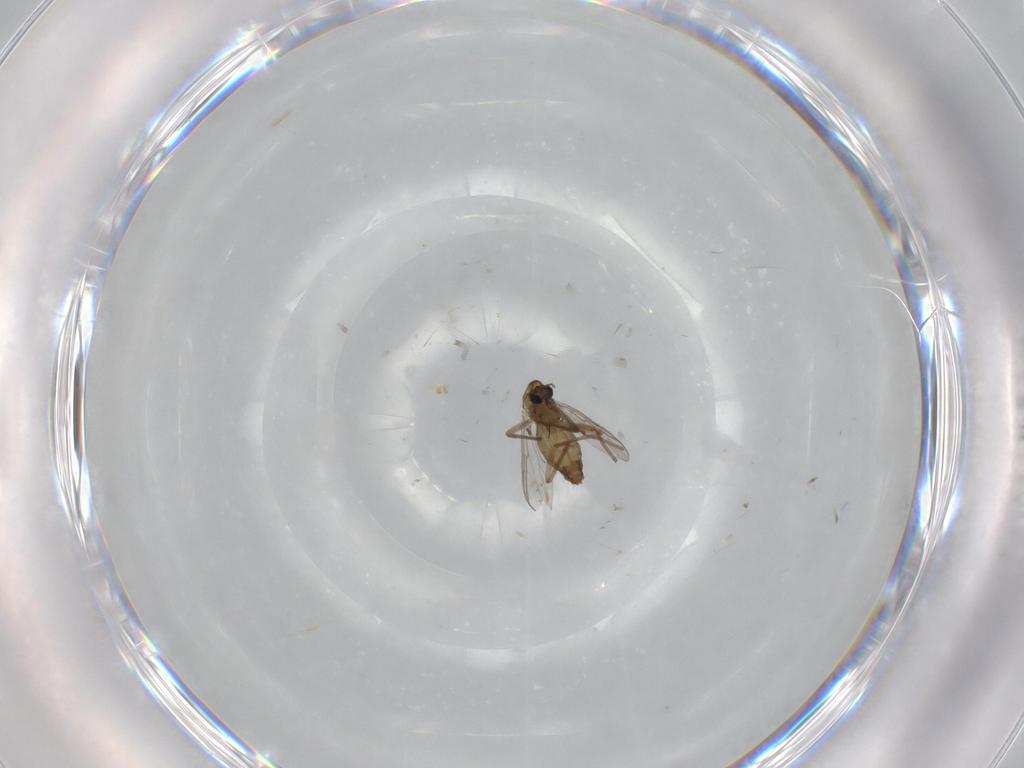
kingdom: Animalia
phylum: Arthropoda
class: Insecta
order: Diptera
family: Chironomidae
